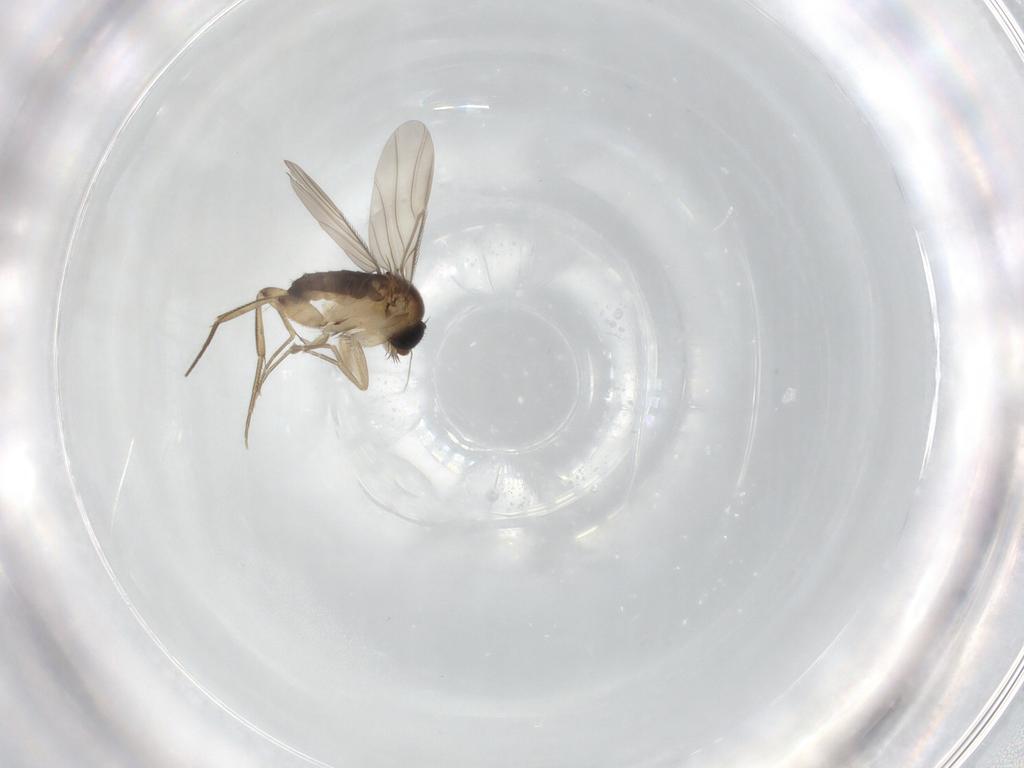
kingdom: Animalia
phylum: Arthropoda
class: Insecta
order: Diptera
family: Phoridae
